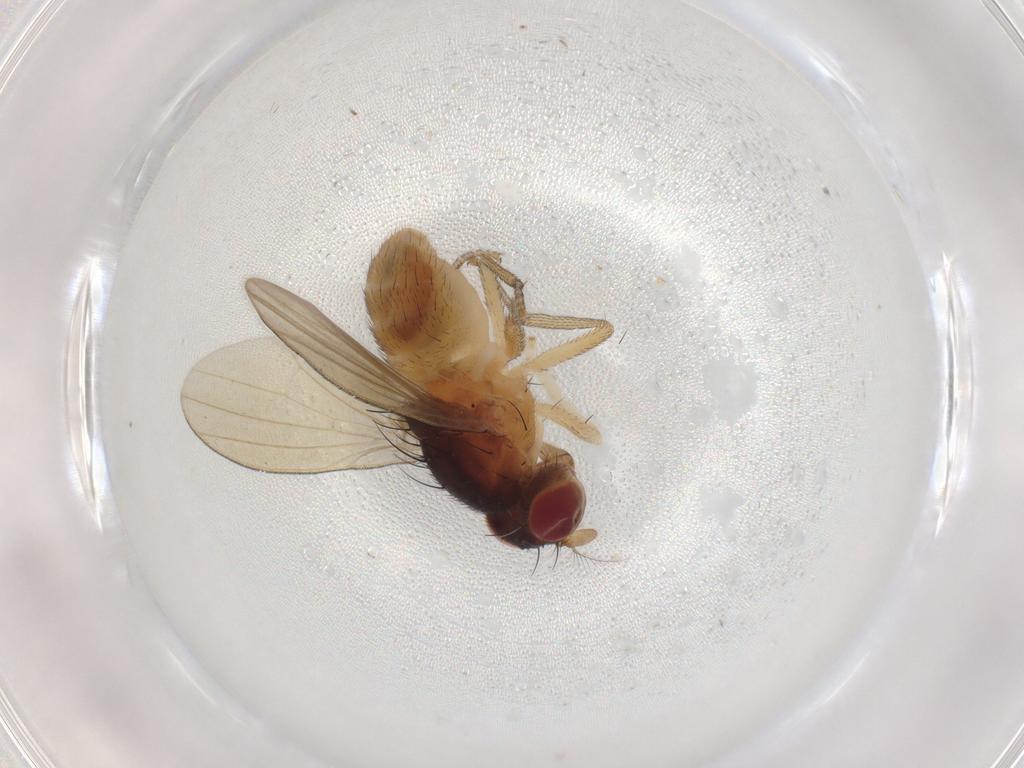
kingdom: Animalia
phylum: Arthropoda
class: Insecta
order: Diptera
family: Lauxaniidae
